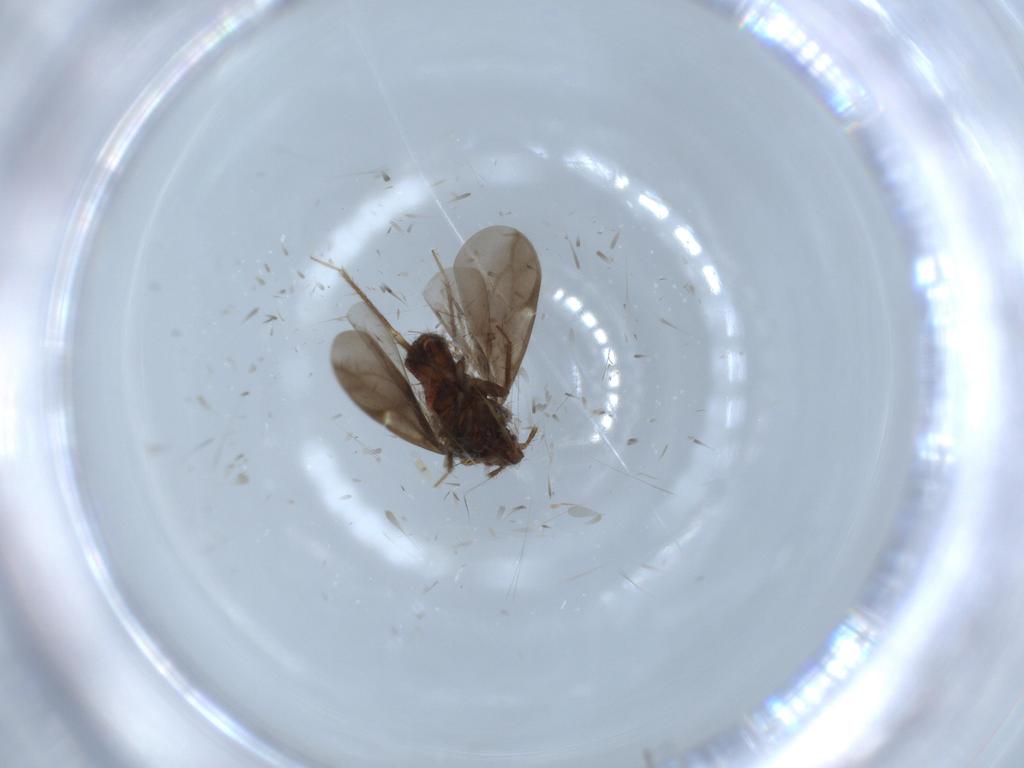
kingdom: Animalia
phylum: Arthropoda
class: Insecta
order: Hemiptera
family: Ceratocombidae
